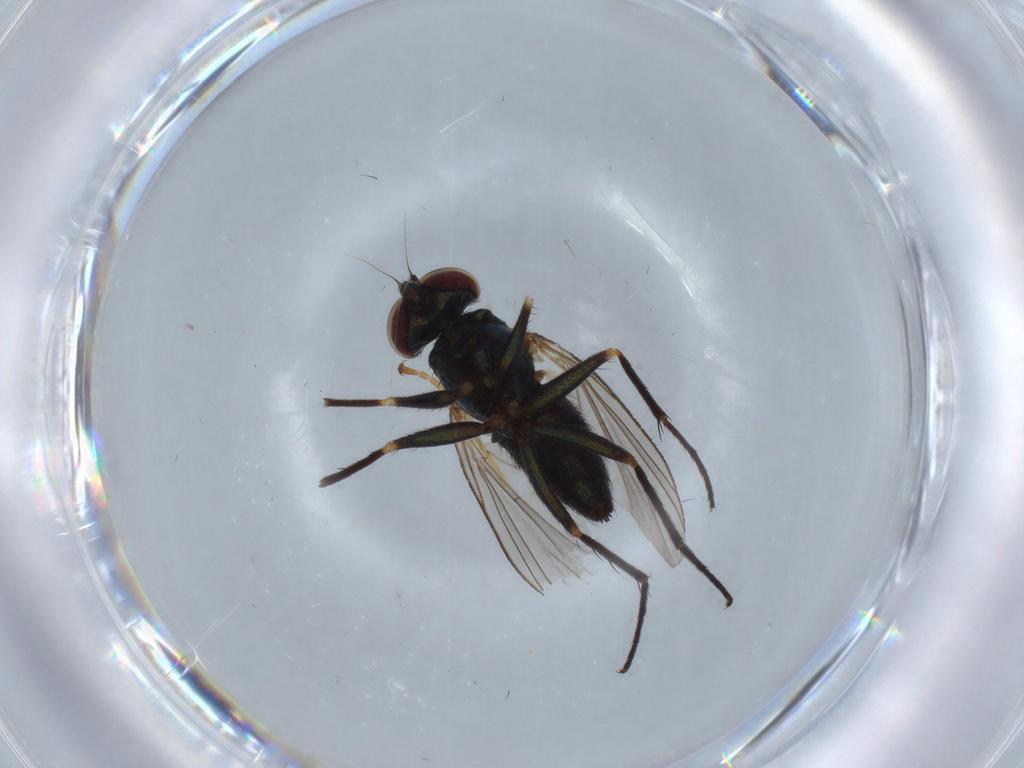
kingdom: Animalia
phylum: Arthropoda
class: Insecta
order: Diptera
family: Dolichopodidae
